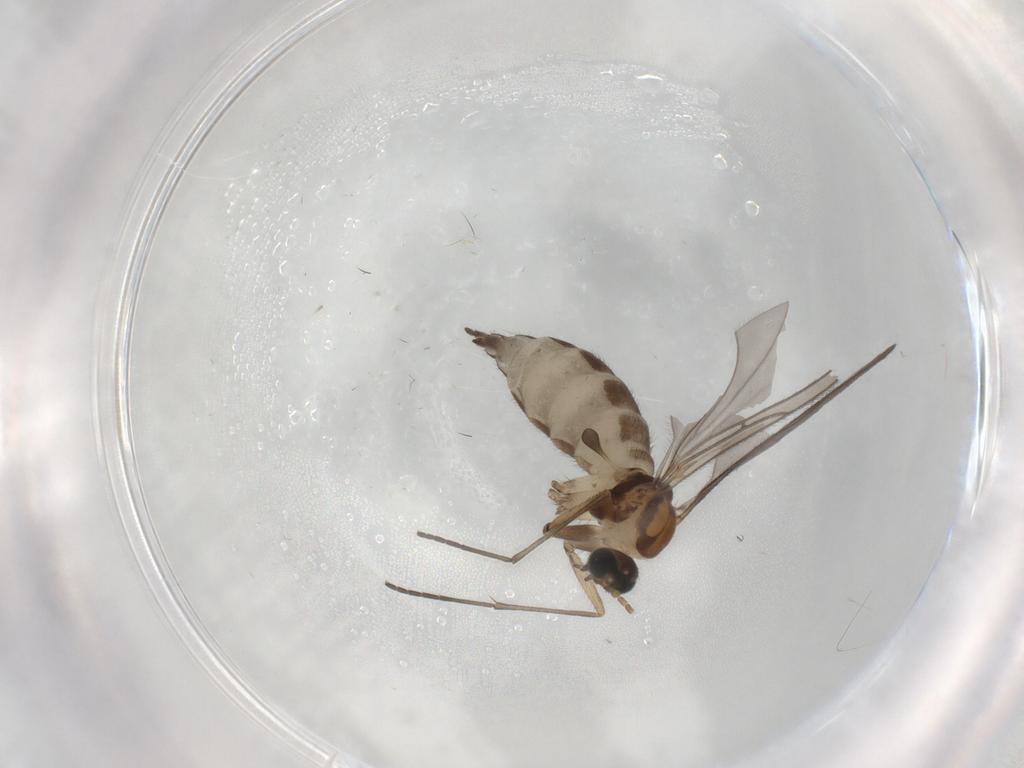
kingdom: Animalia
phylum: Arthropoda
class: Insecta
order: Diptera
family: Sciaridae
